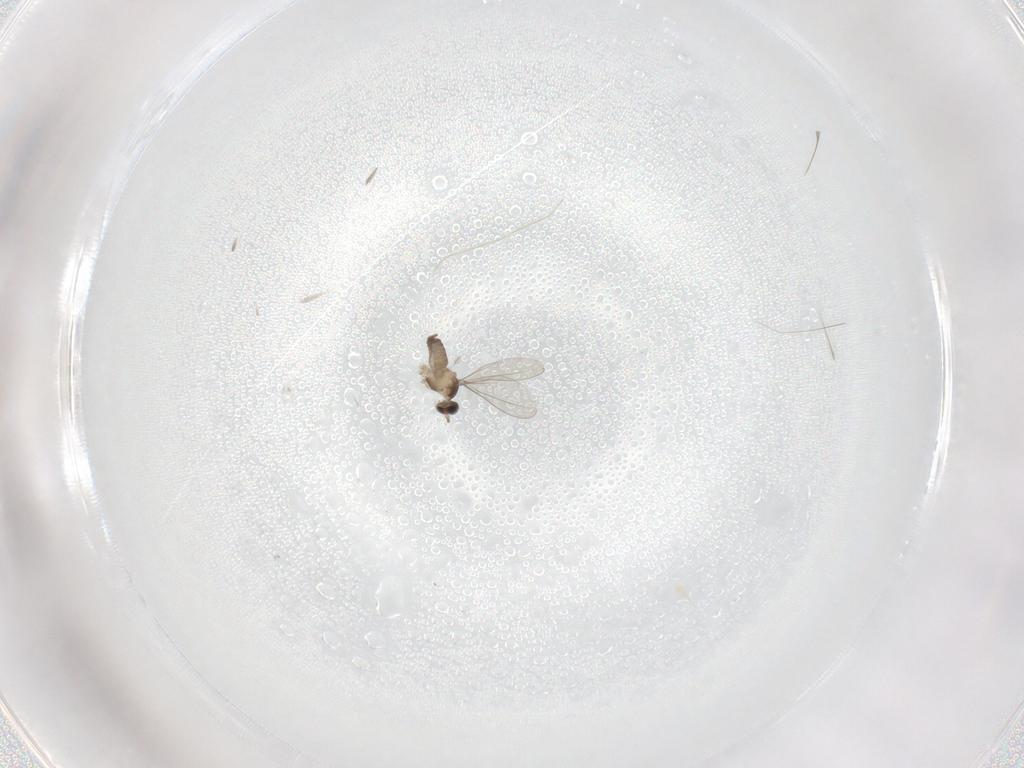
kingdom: Animalia
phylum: Arthropoda
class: Insecta
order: Diptera
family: Cecidomyiidae
